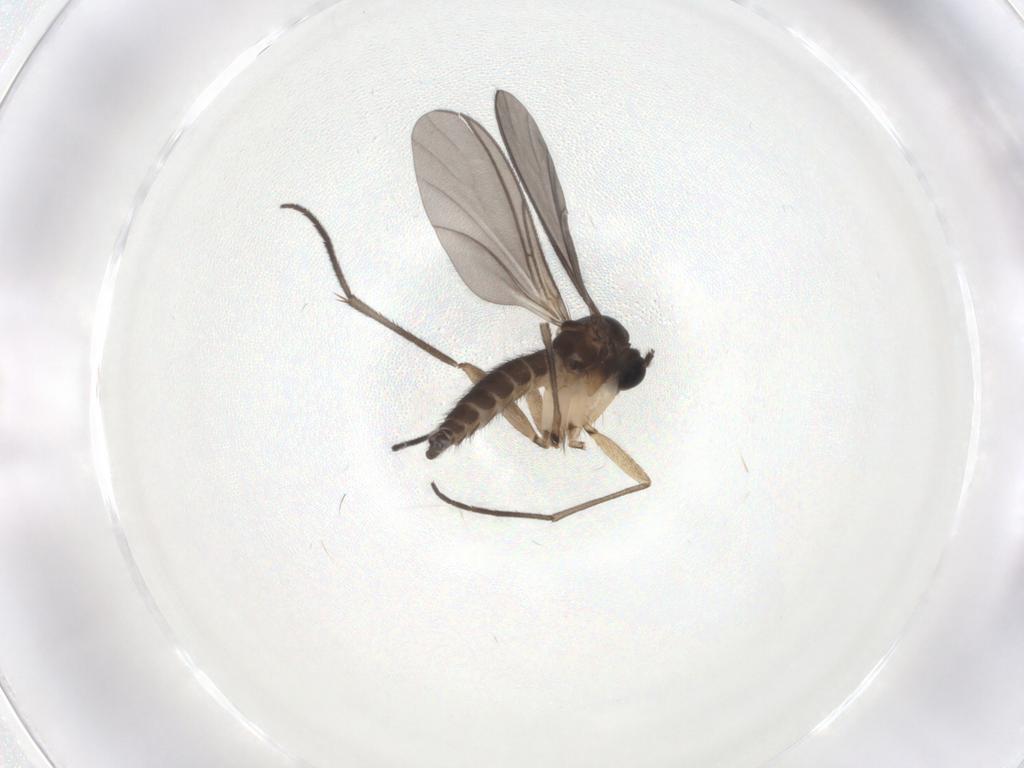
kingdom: Animalia
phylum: Arthropoda
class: Insecta
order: Diptera
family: Sciaridae
